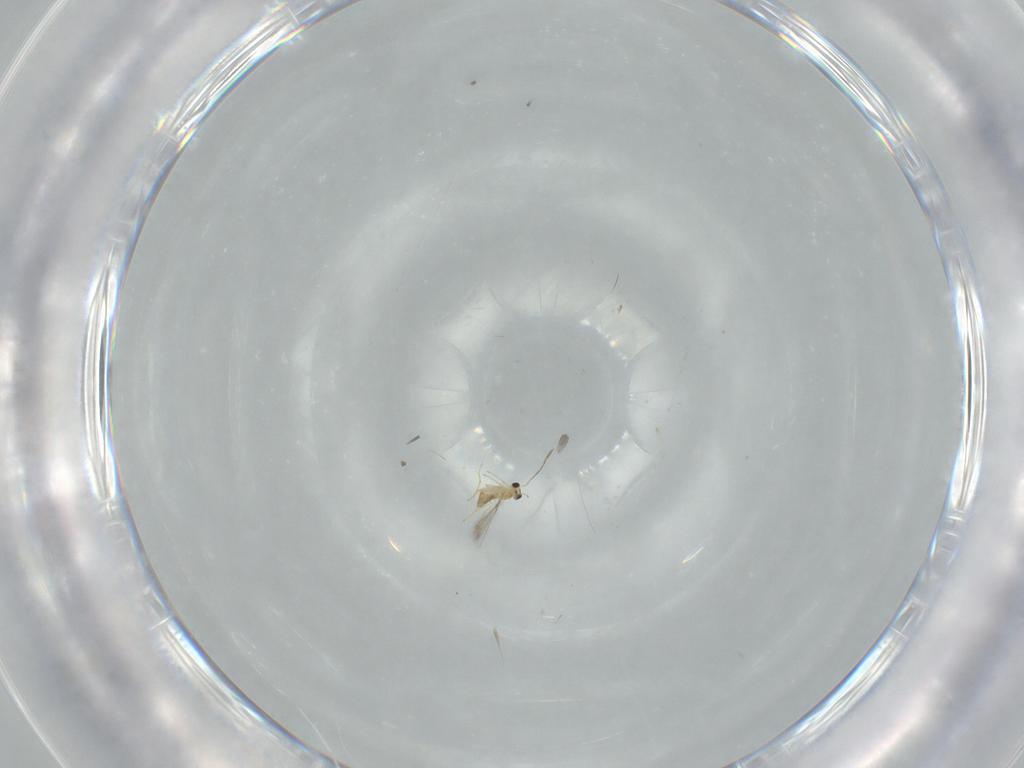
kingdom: Animalia
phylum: Arthropoda
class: Insecta
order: Hymenoptera
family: Mymaridae
